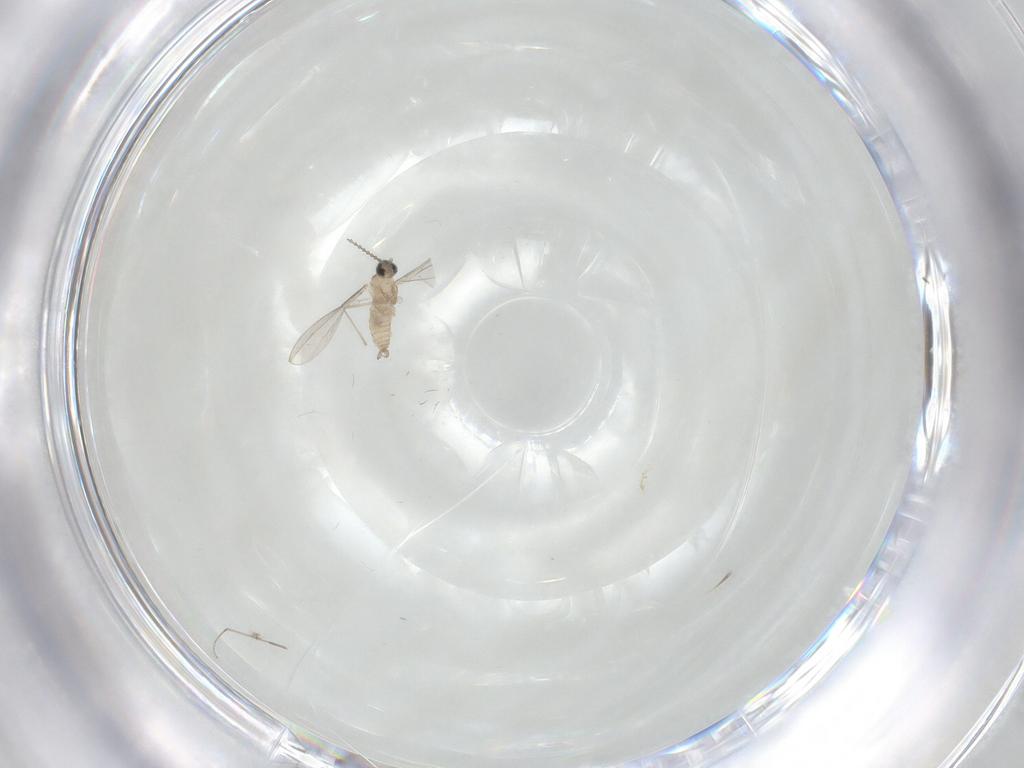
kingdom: Animalia
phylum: Arthropoda
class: Insecta
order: Diptera
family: Cecidomyiidae
